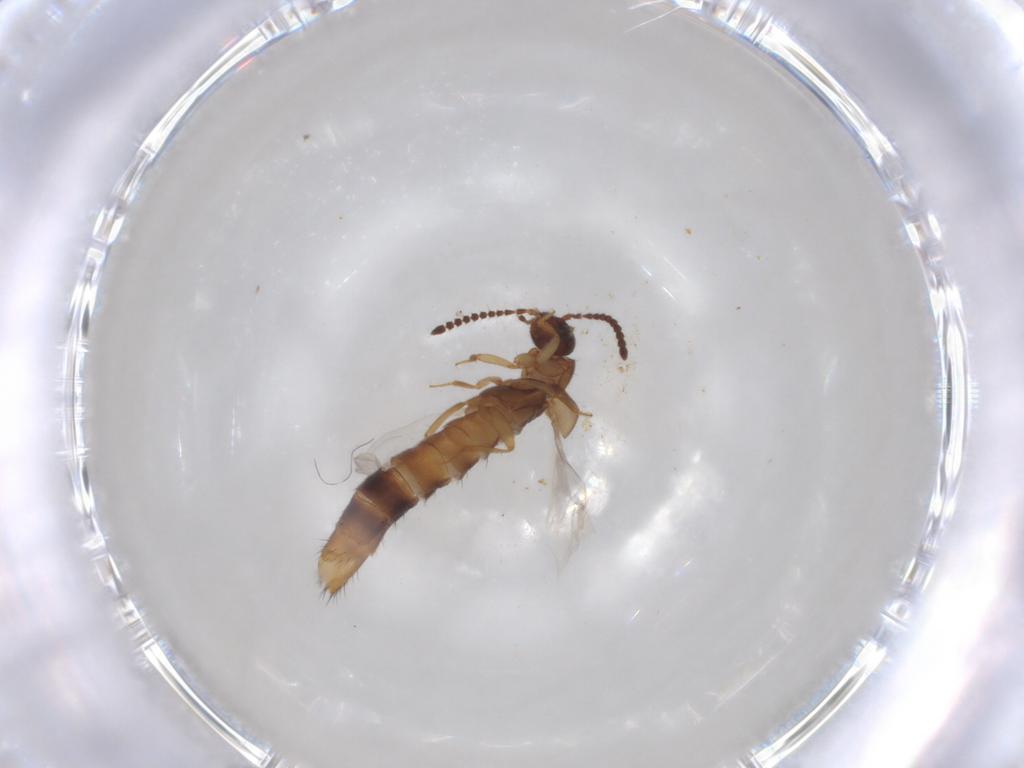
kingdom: Animalia
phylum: Arthropoda
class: Insecta
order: Coleoptera
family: Staphylinidae
